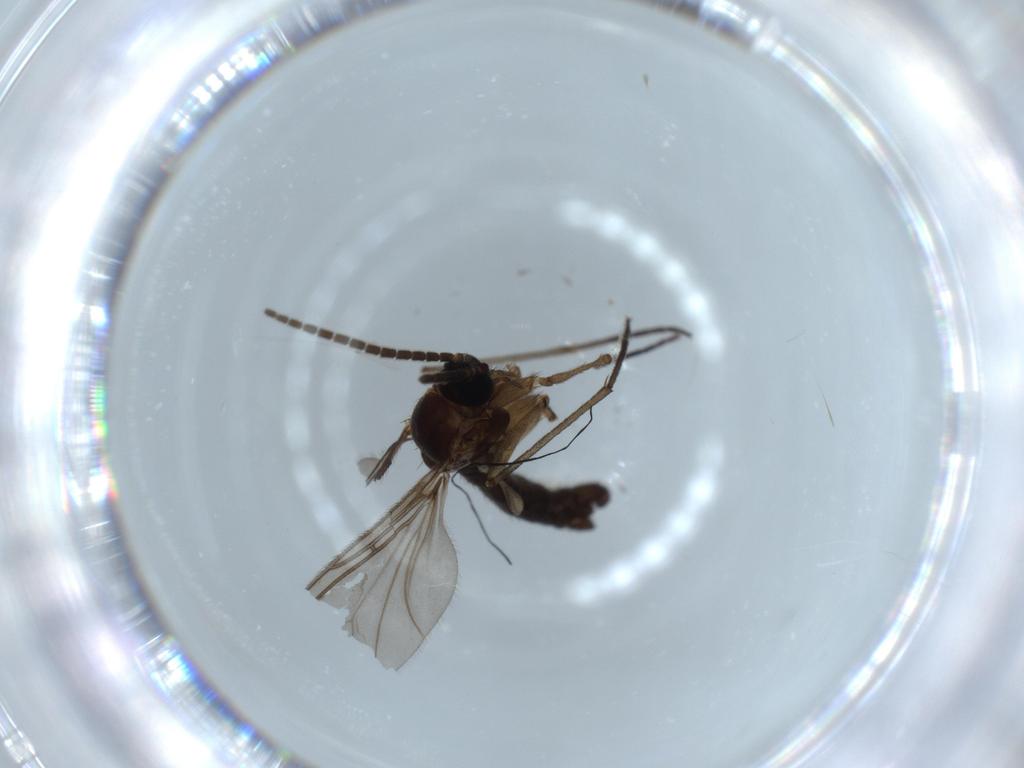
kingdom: Animalia
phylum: Arthropoda
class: Insecta
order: Diptera
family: Sciaridae
